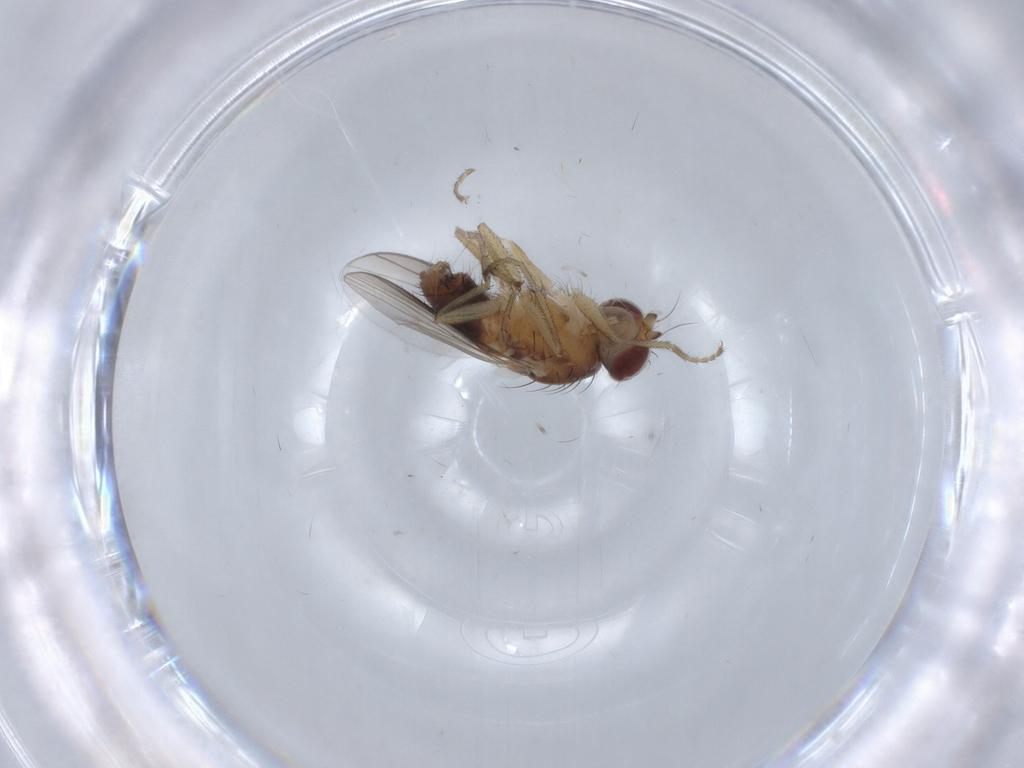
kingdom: Animalia
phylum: Arthropoda
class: Insecta
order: Diptera
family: Heleomyzidae
